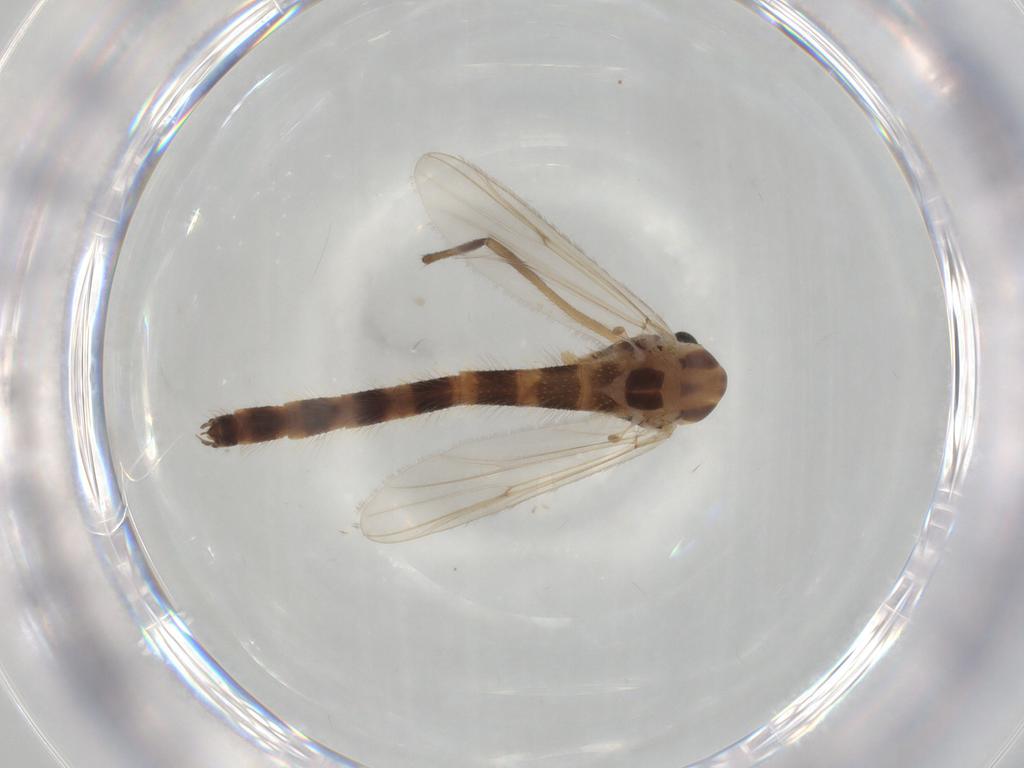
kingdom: Animalia
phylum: Arthropoda
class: Insecta
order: Diptera
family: Chironomidae
